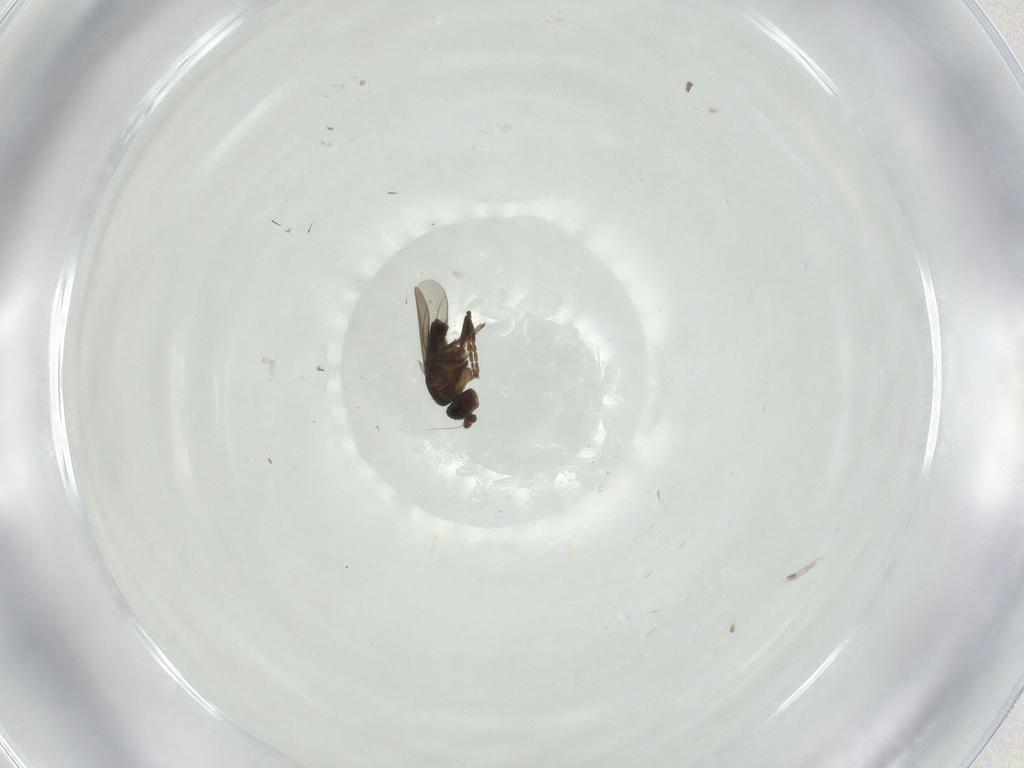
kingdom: Animalia
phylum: Arthropoda
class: Insecta
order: Diptera
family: Sphaeroceridae
